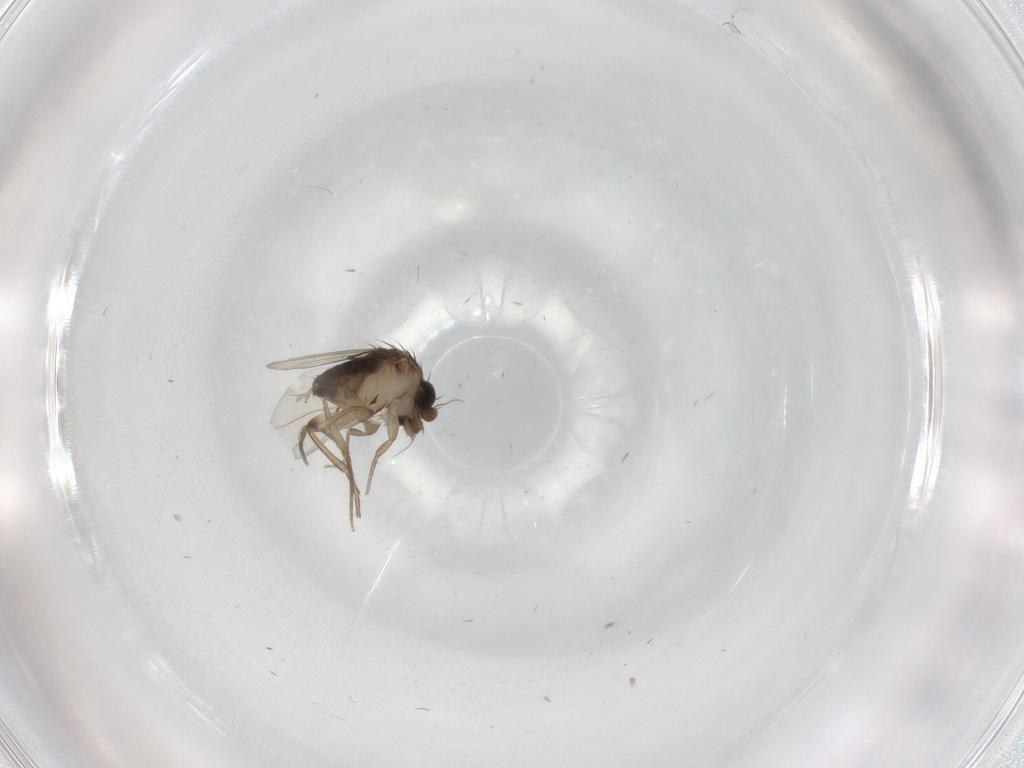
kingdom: Animalia
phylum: Arthropoda
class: Insecta
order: Diptera
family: Phoridae
